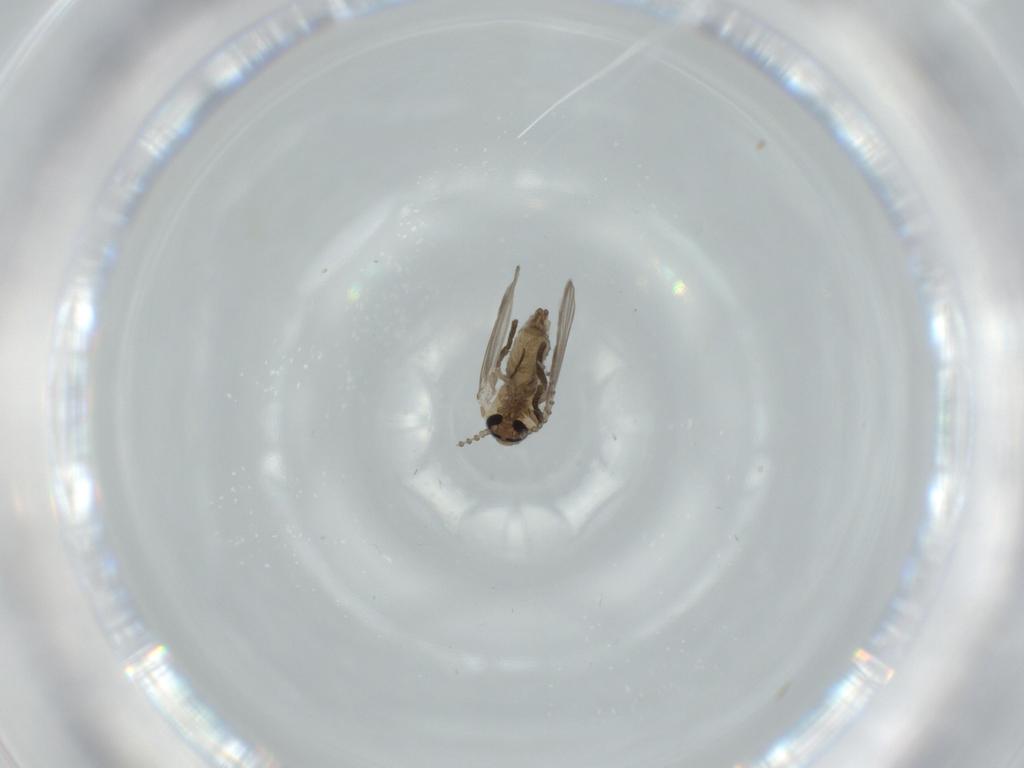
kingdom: Animalia
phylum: Arthropoda
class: Insecta
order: Diptera
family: Psychodidae
